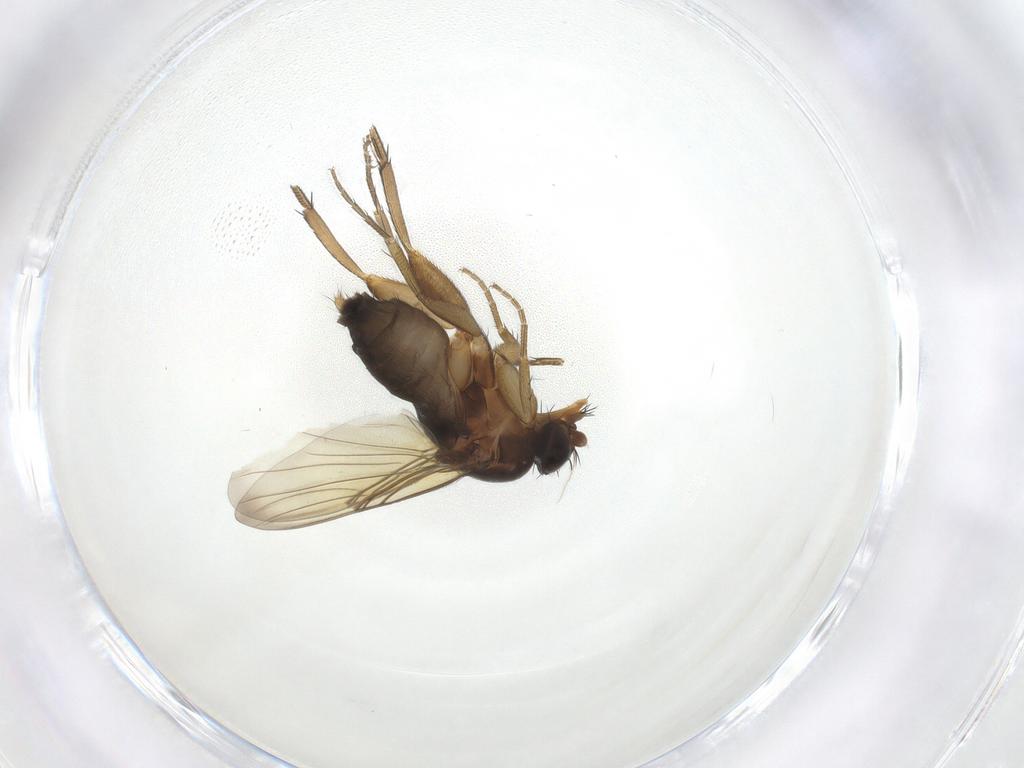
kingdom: Animalia
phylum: Arthropoda
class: Insecta
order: Diptera
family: Phoridae
